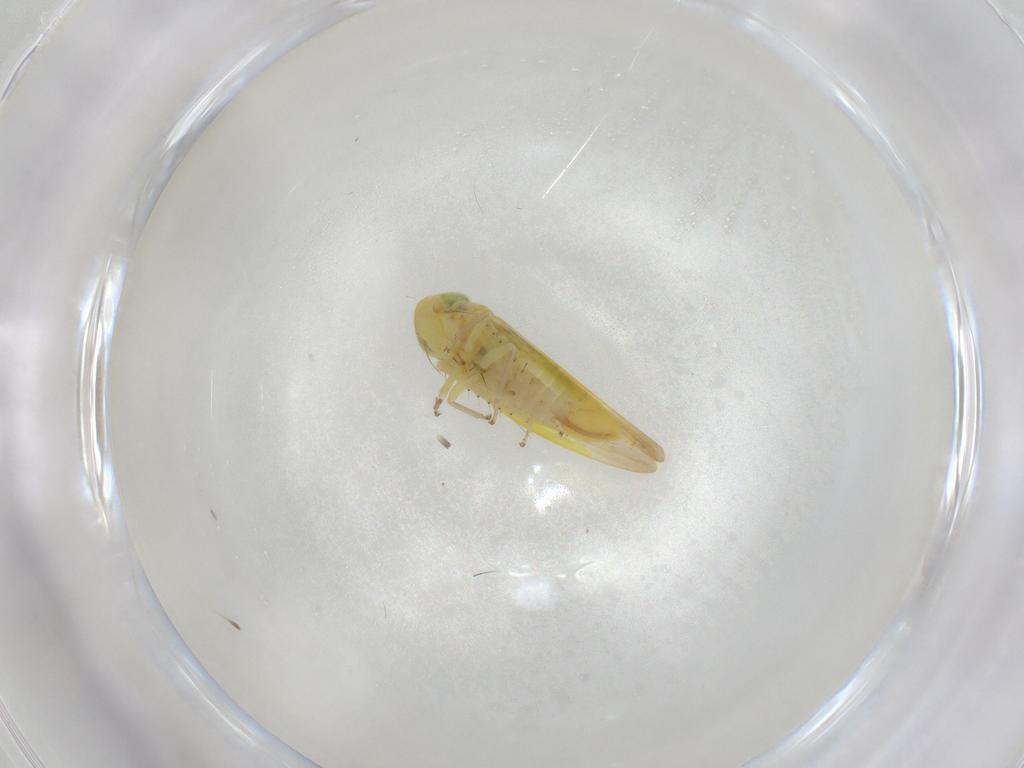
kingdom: Animalia
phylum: Arthropoda
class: Insecta
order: Hemiptera
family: Cicadellidae
